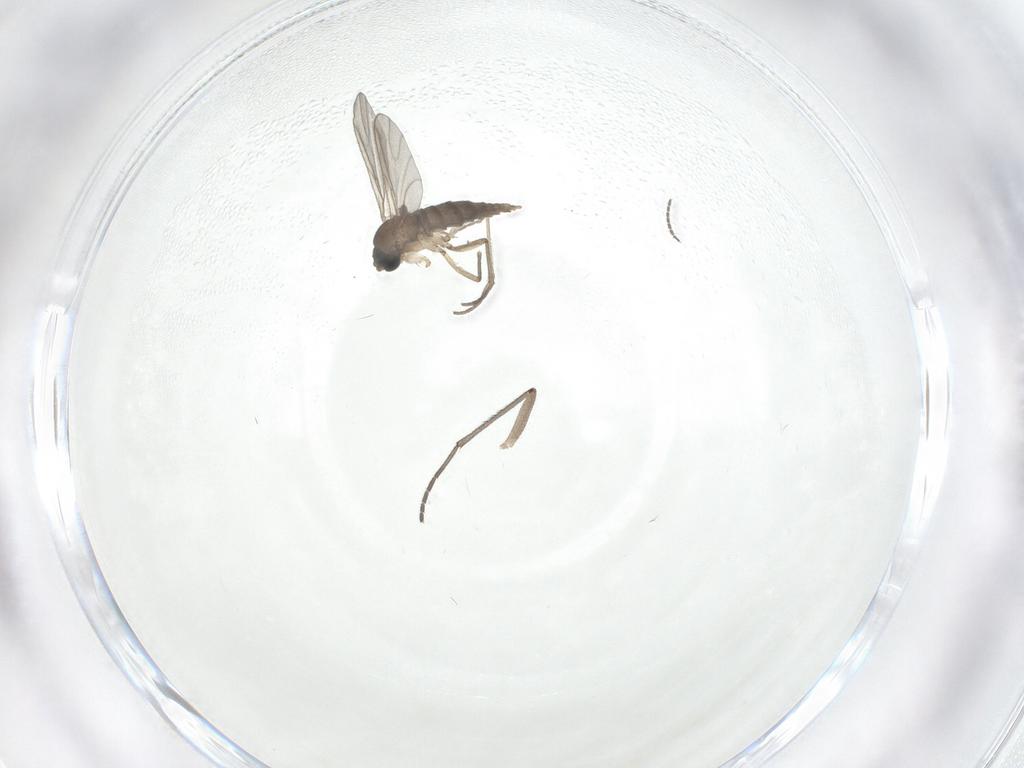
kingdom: Animalia
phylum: Arthropoda
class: Insecta
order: Diptera
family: Sciaridae
